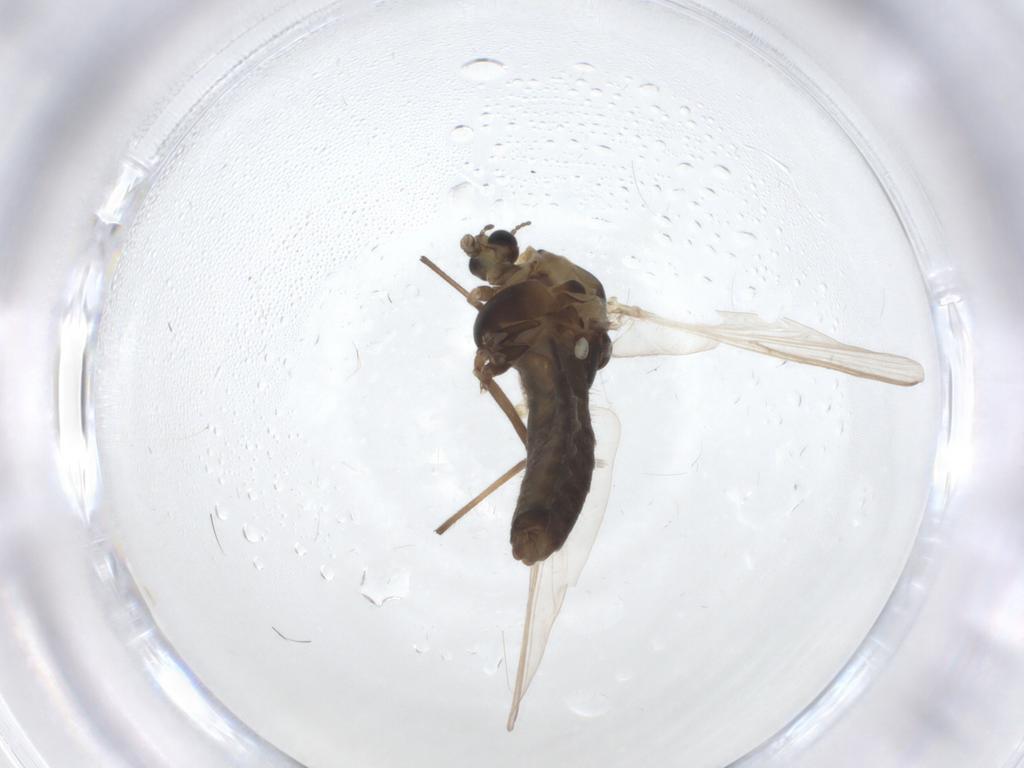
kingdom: Animalia
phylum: Arthropoda
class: Insecta
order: Diptera
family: Chironomidae
